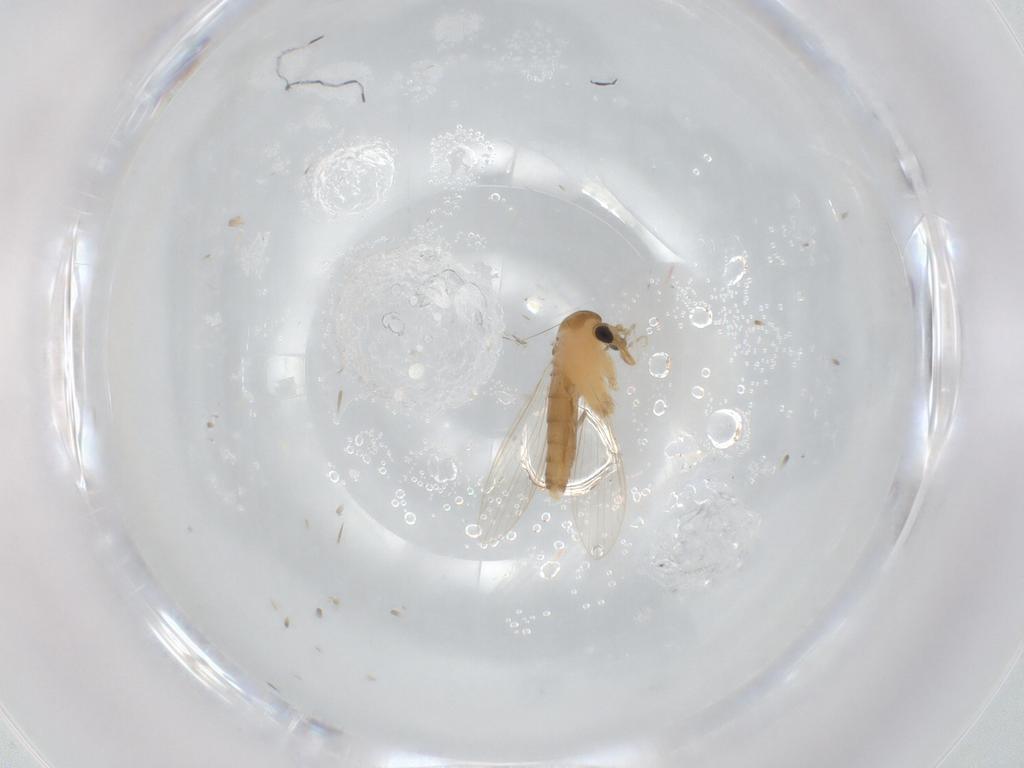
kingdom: Animalia
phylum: Arthropoda
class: Insecta
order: Diptera
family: Psychodidae
